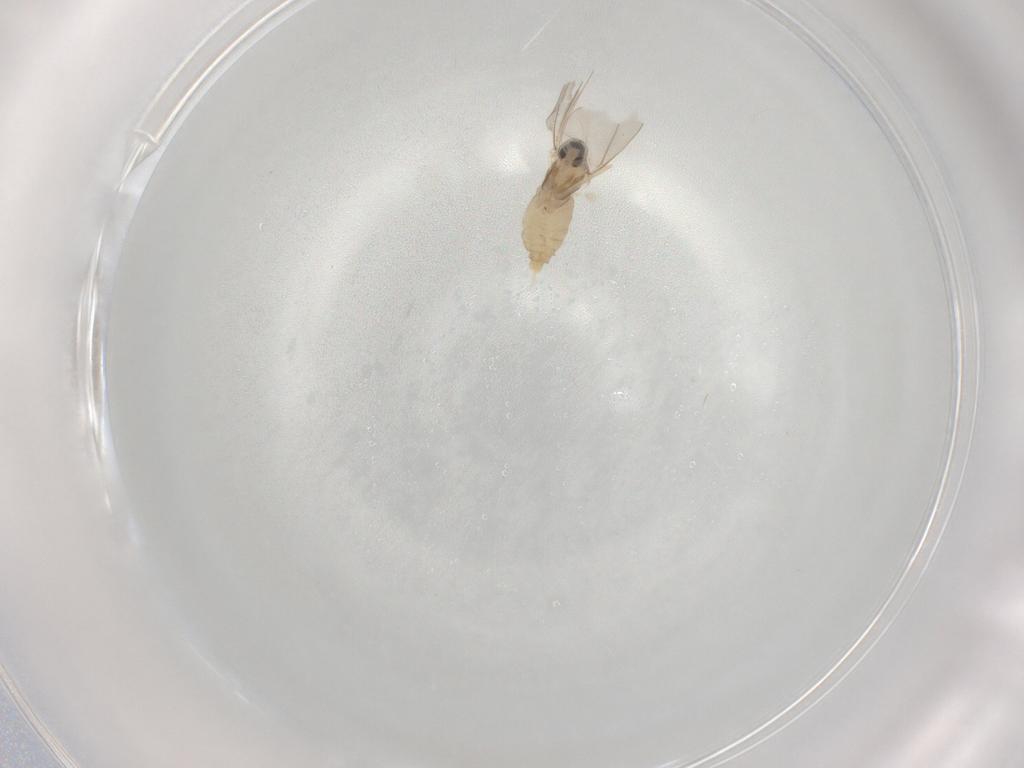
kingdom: Animalia
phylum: Arthropoda
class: Insecta
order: Diptera
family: Cecidomyiidae
